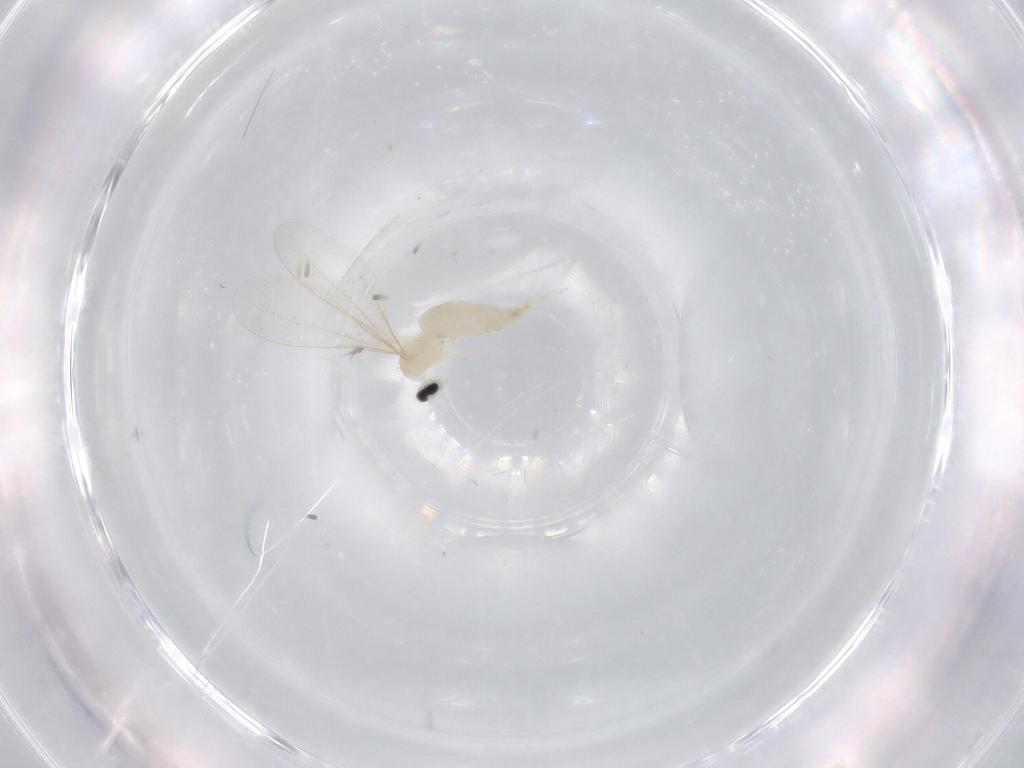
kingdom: Animalia
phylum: Arthropoda
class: Insecta
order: Diptera
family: Cecidomyiidae
